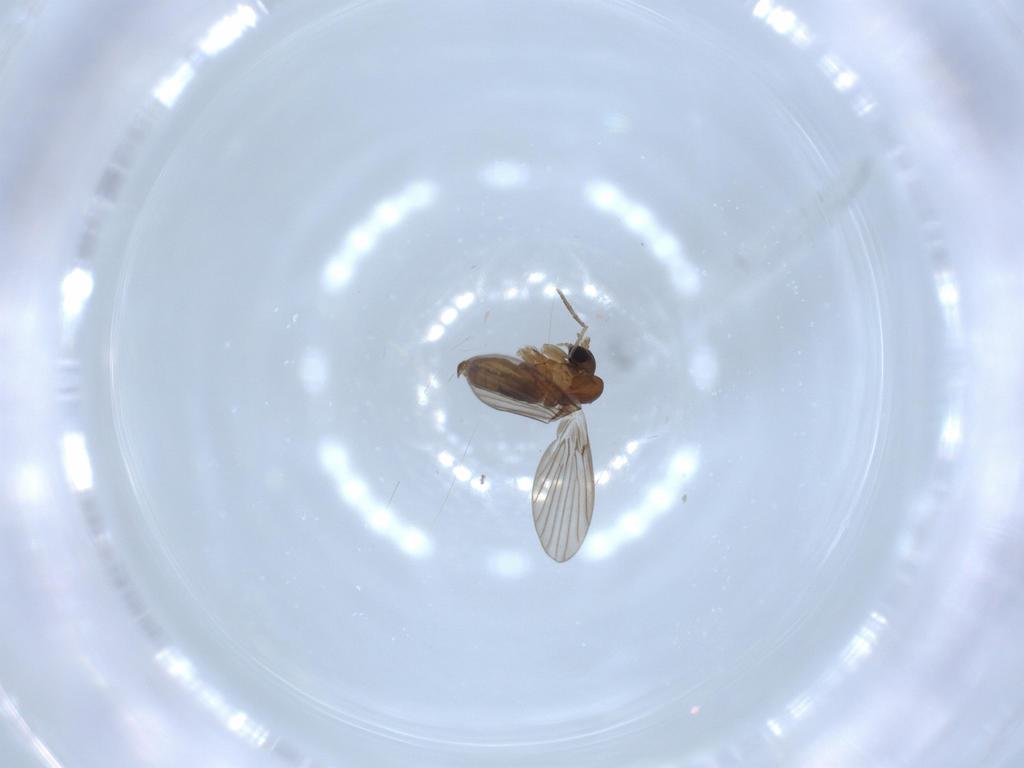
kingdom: Animalia
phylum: Arthropoda
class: Insecta
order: Diptera
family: Psychodidae
